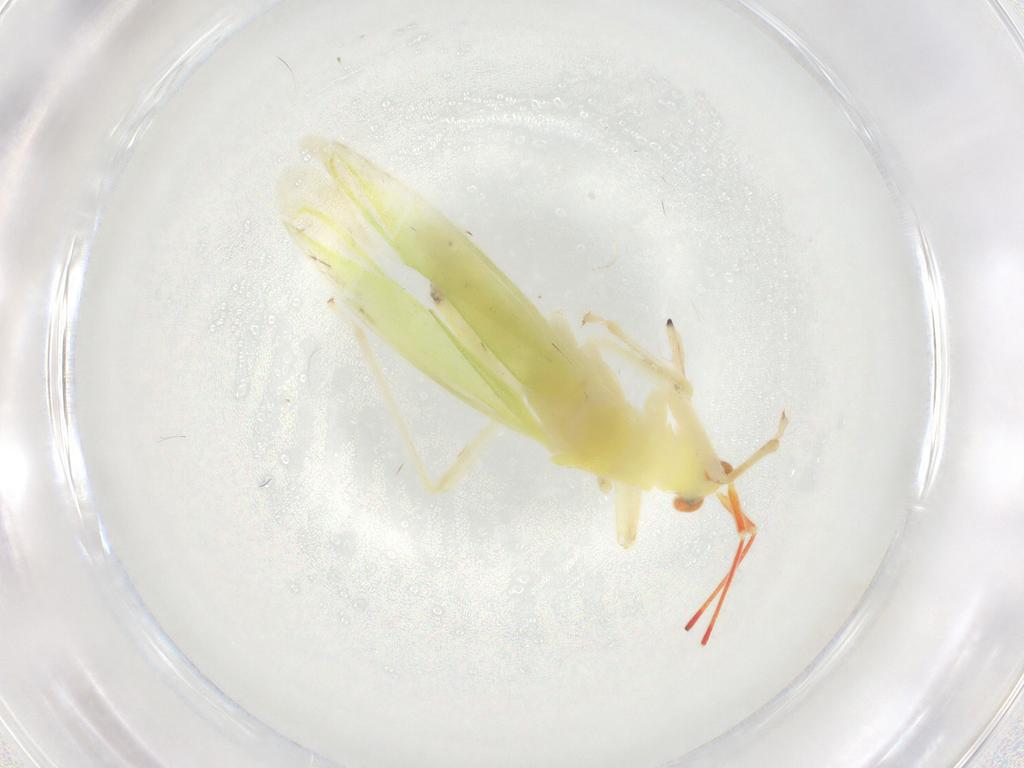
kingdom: Animalia
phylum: Arthropoda
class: Insecta
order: Hemiptera
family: Miridae
